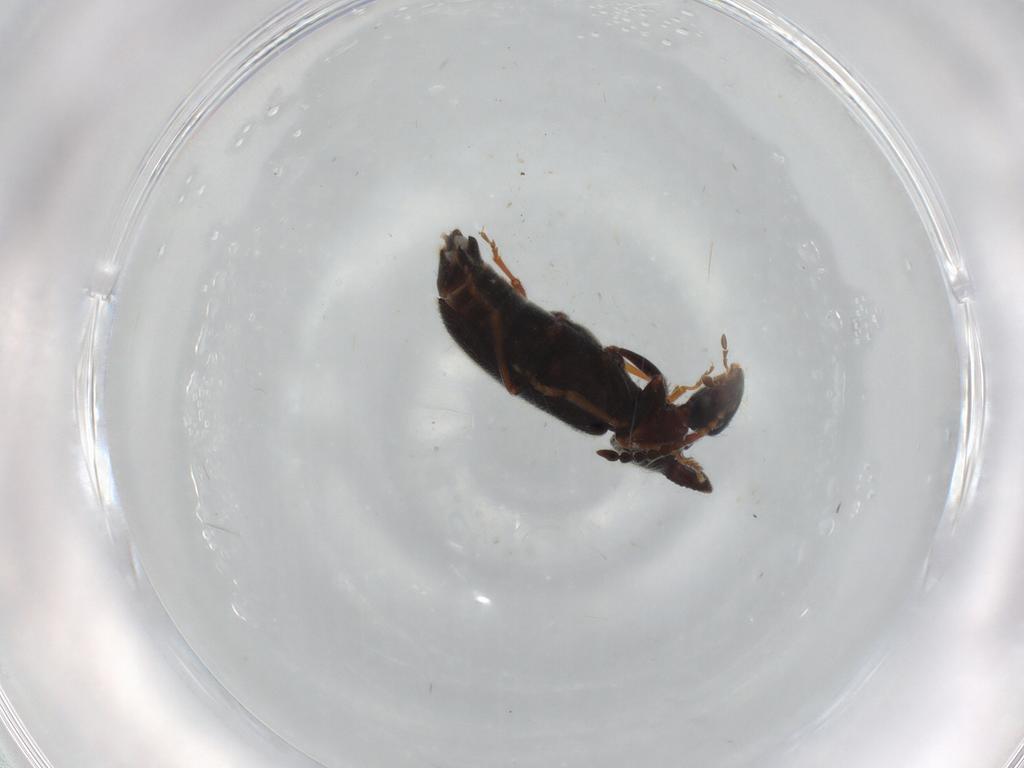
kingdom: Animalia
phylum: Arthropoda
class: Insecta
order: Coleoptera
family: Anthicidae
